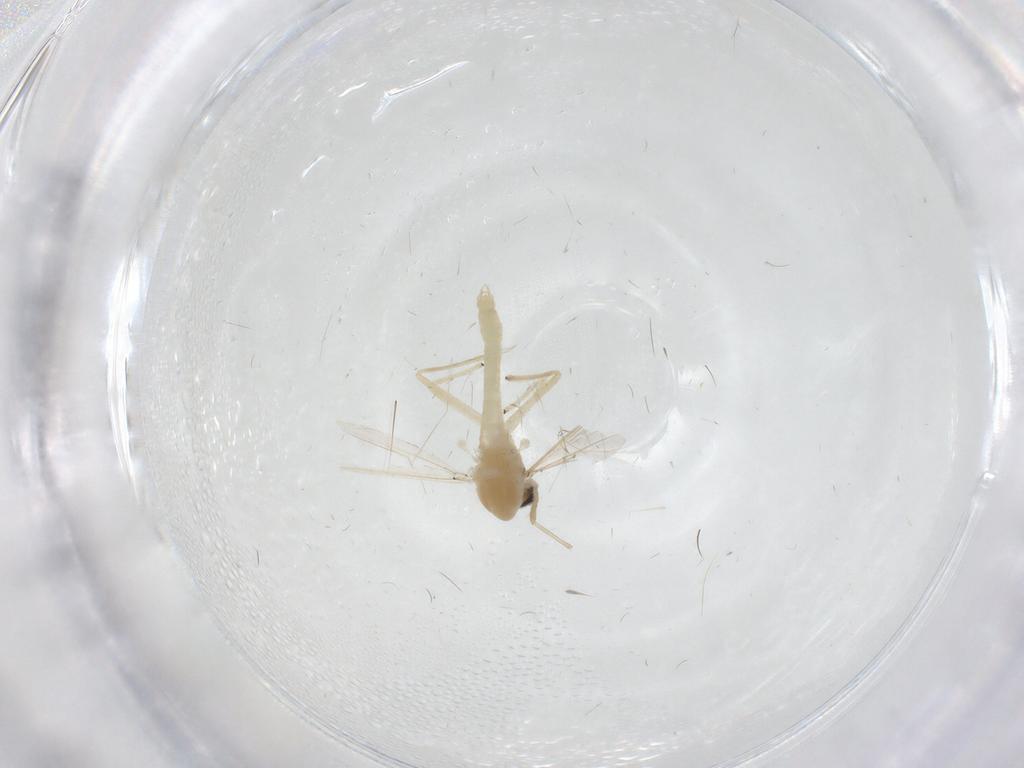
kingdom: Animalia
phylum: Arthropoda
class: Insecta
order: Diptera
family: Chironomidae
